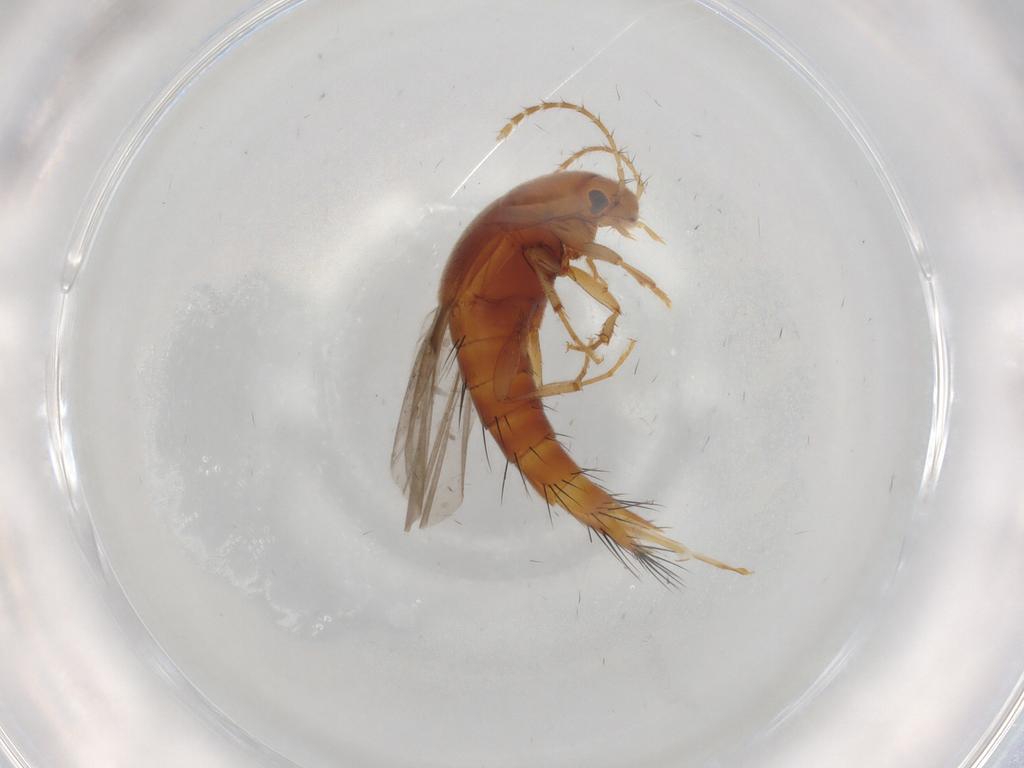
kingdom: Animalia
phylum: Arthropoda
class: Insecta
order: Coleoptera
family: Staphylinidae
